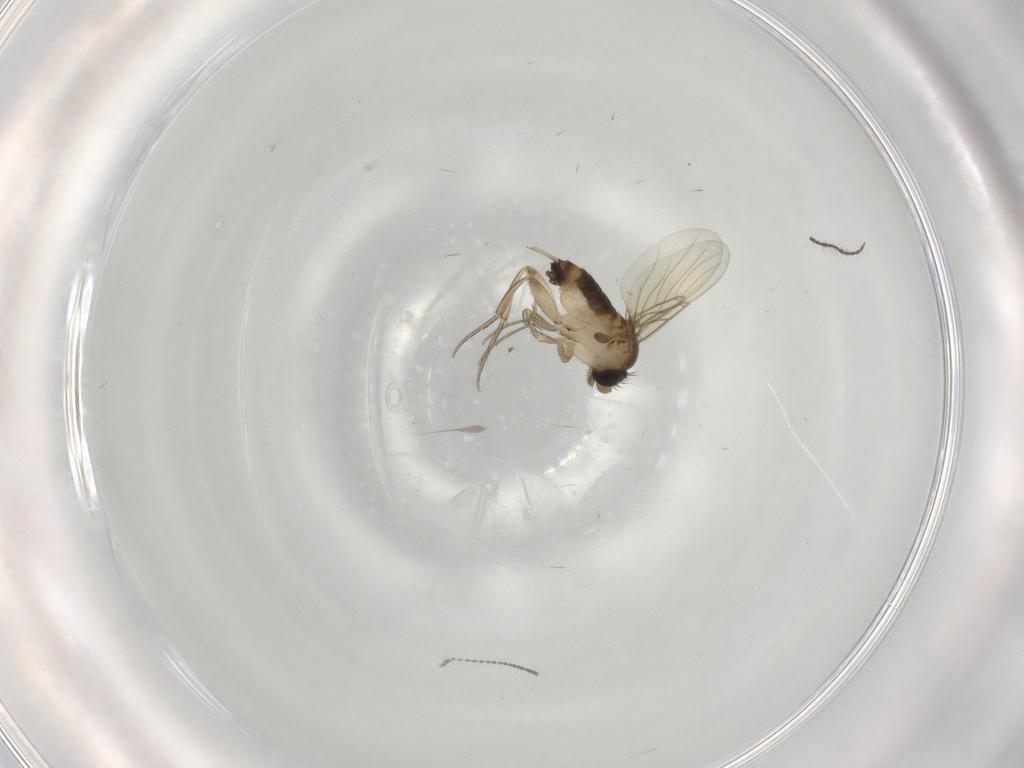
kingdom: Animalia
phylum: Arthropoda
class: Insecta
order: Diptera
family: Phoridae
